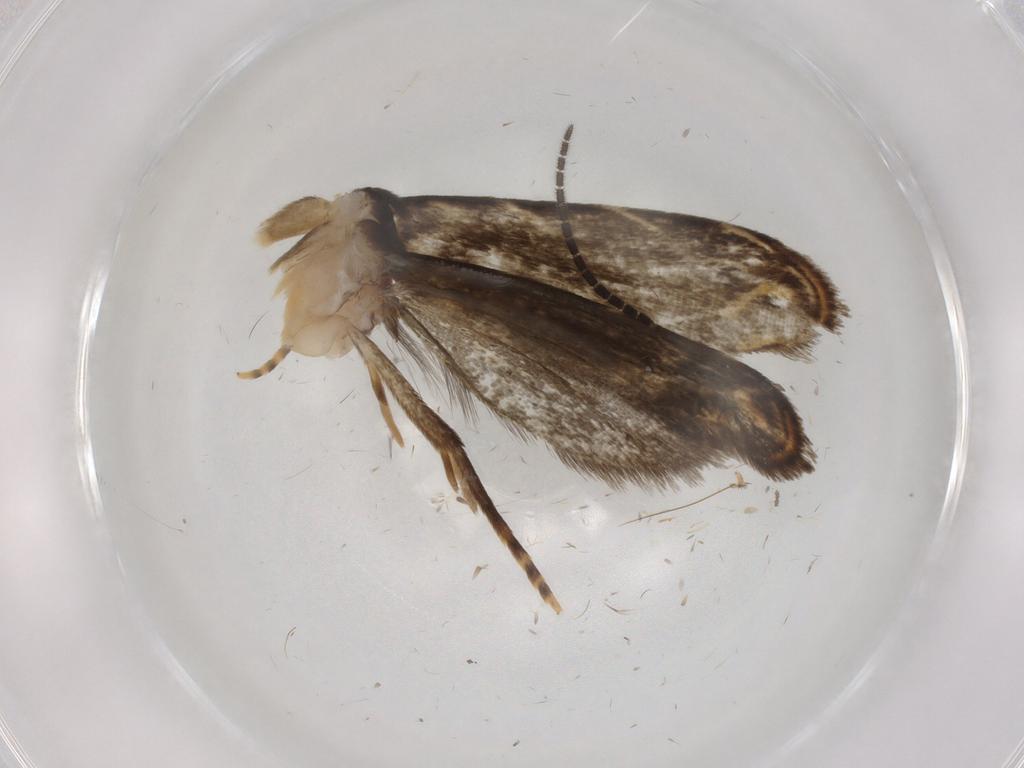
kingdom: Animalia
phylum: Arthropoda
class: Insecta
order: Lepidoptera
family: Dryadaulidae
